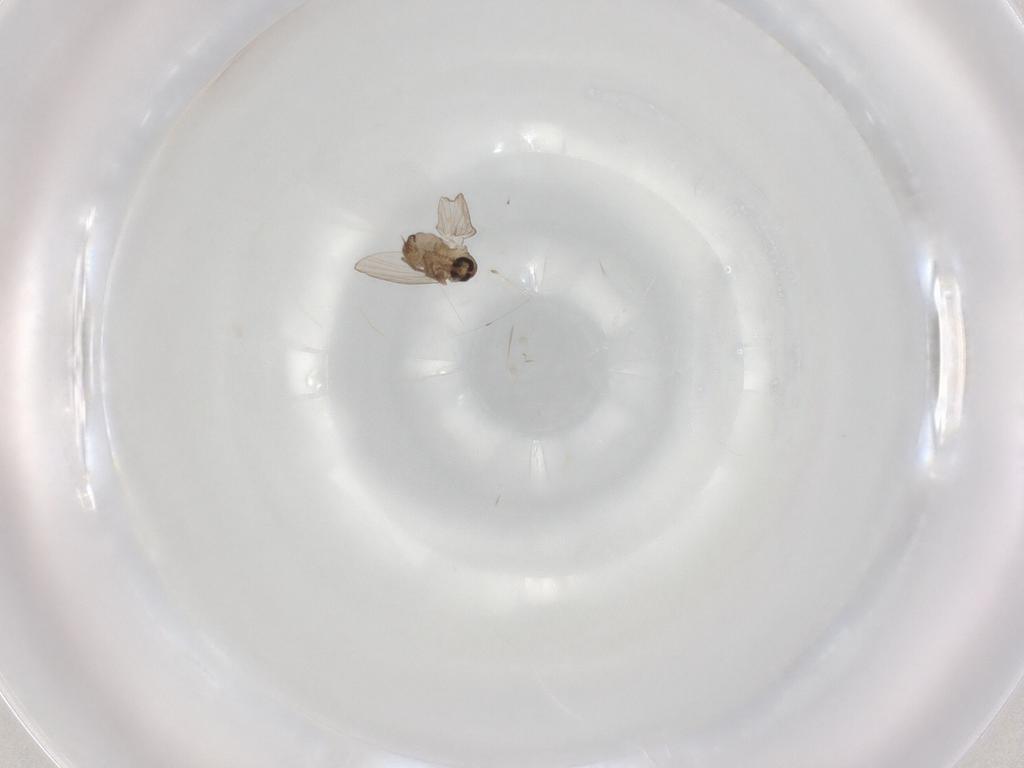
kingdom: Animalia
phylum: Arthropoda
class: Insecta
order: Diptera
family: Psychodidae
